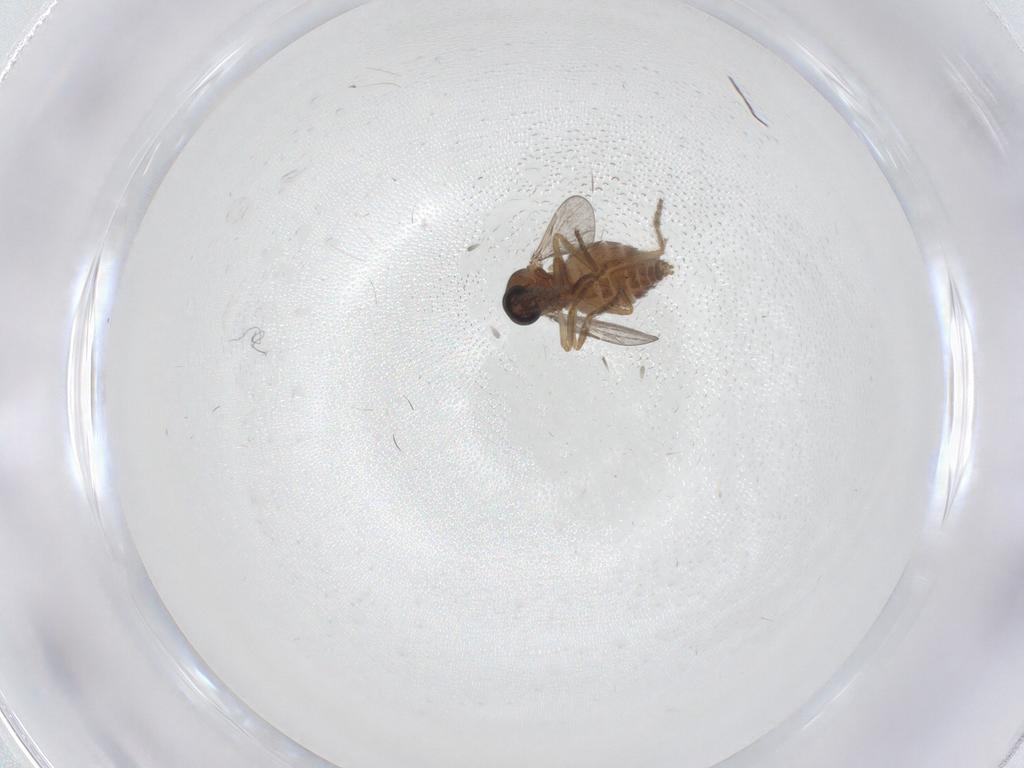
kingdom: Animalia
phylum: Arthropoda
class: Insecta
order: Diptera
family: Ceratopogonidae
